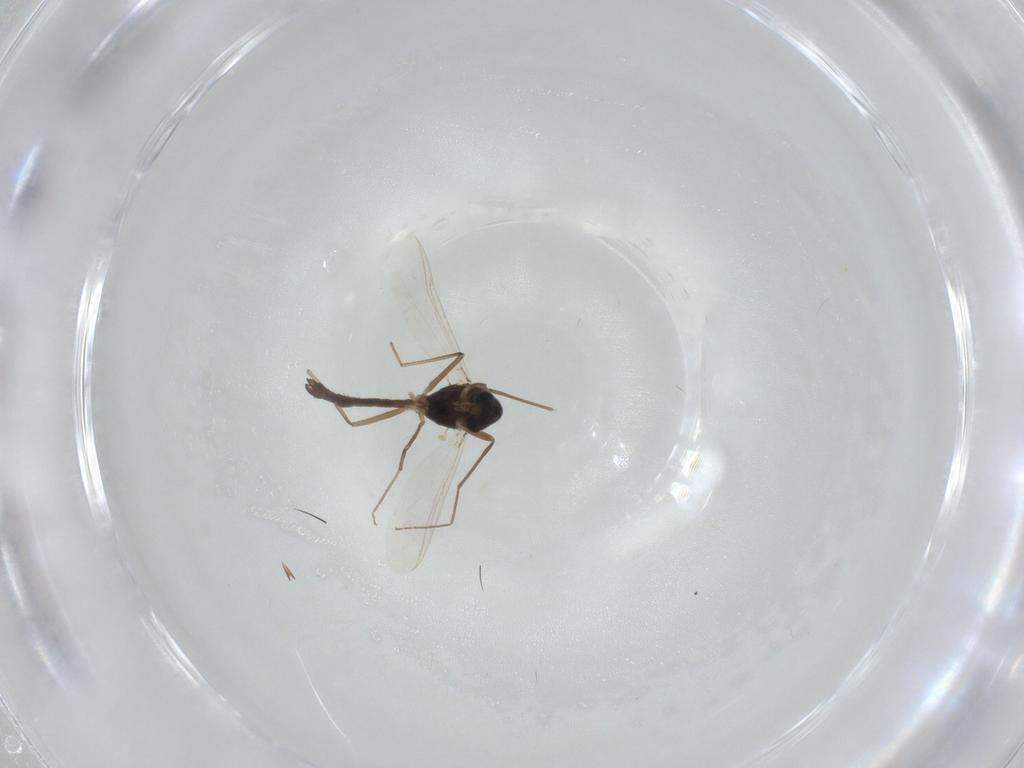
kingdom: Animalia
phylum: Arthropoda
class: Insecta
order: Diptera
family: Chironomidae
